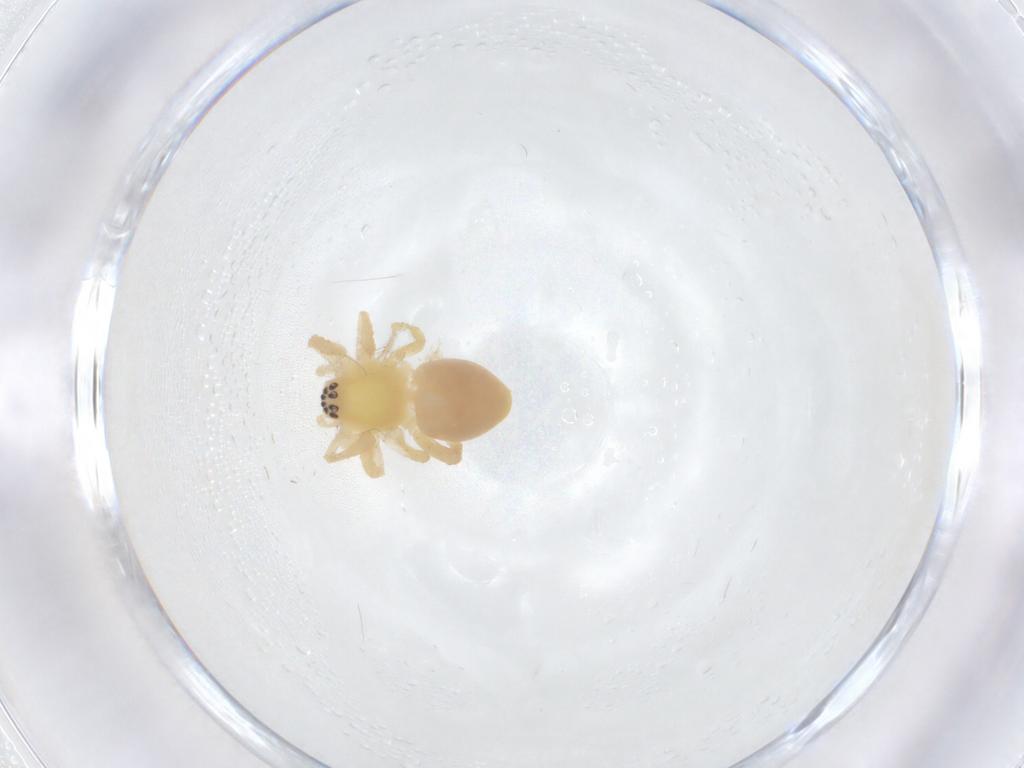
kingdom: Animalia
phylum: Arthropoda
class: Arachnida
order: Araneae
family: Anyphaenidae
